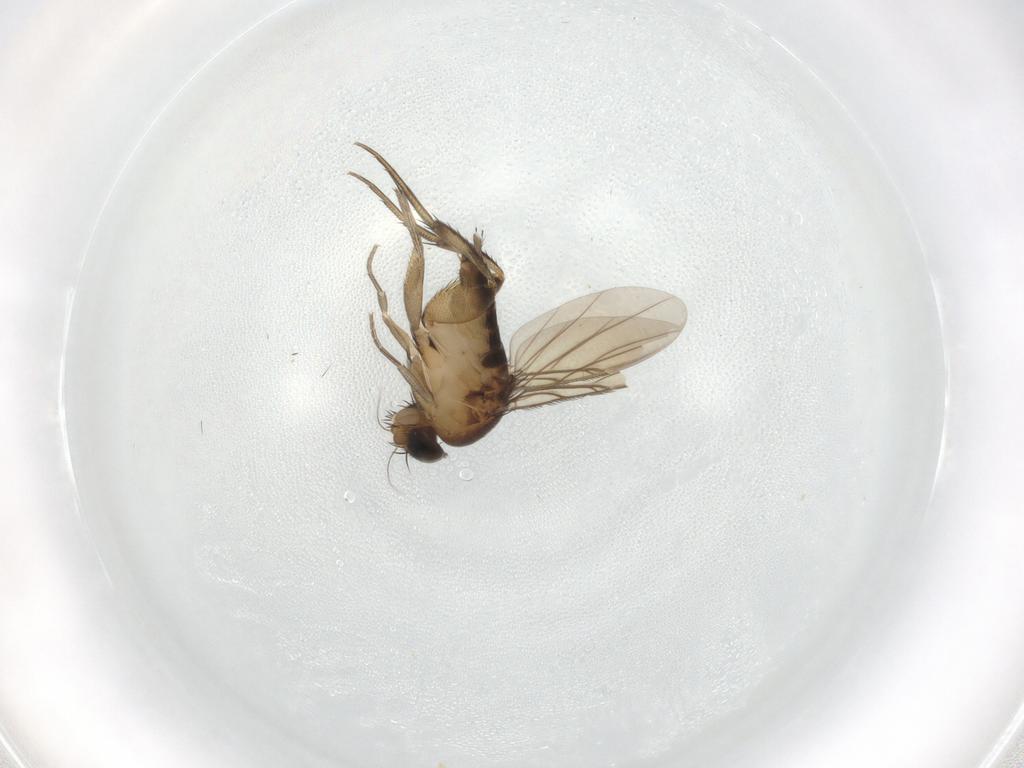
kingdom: Animalia
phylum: Arthropoda
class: Insecta
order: Diptera
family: Phoridae
